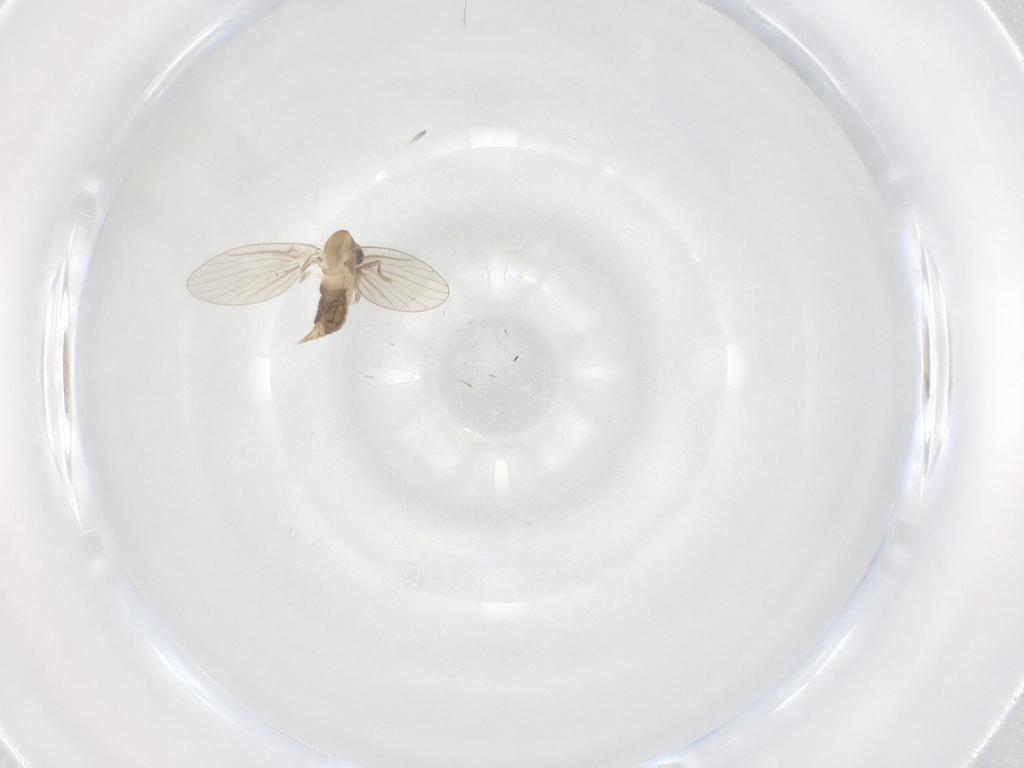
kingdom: Animalia
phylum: Arthropoda
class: Insecta
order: Diptera
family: Psychodidae
